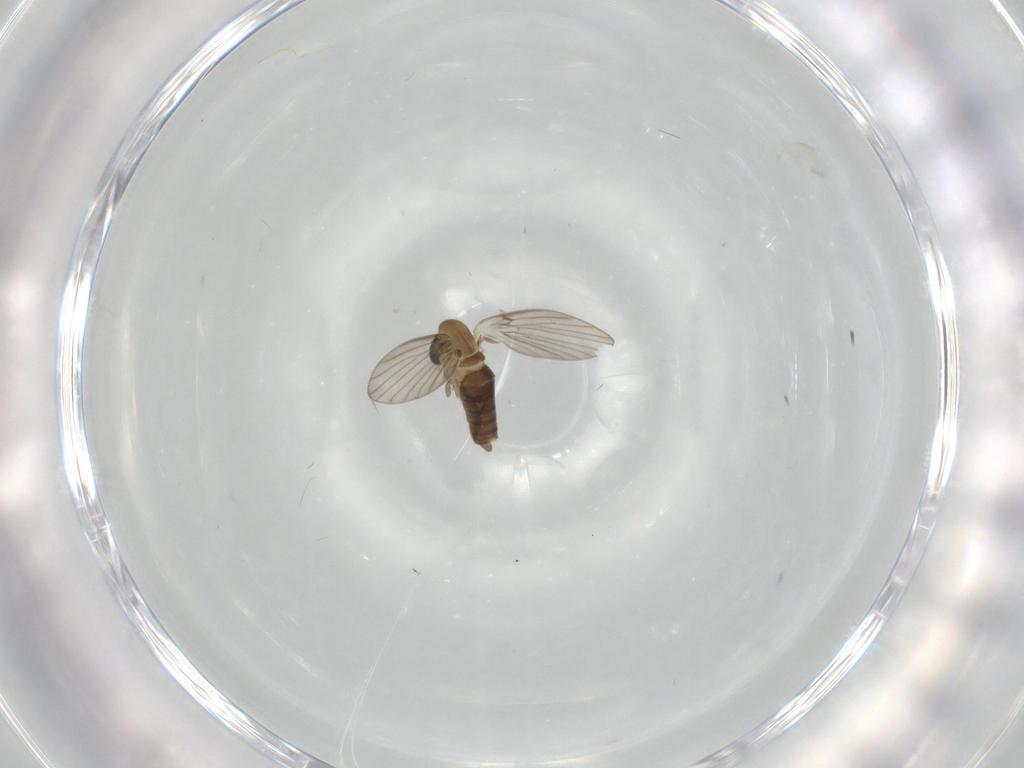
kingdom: Animalia
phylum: Arthropoda
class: Insecta
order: Diptera
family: Psychodidae
